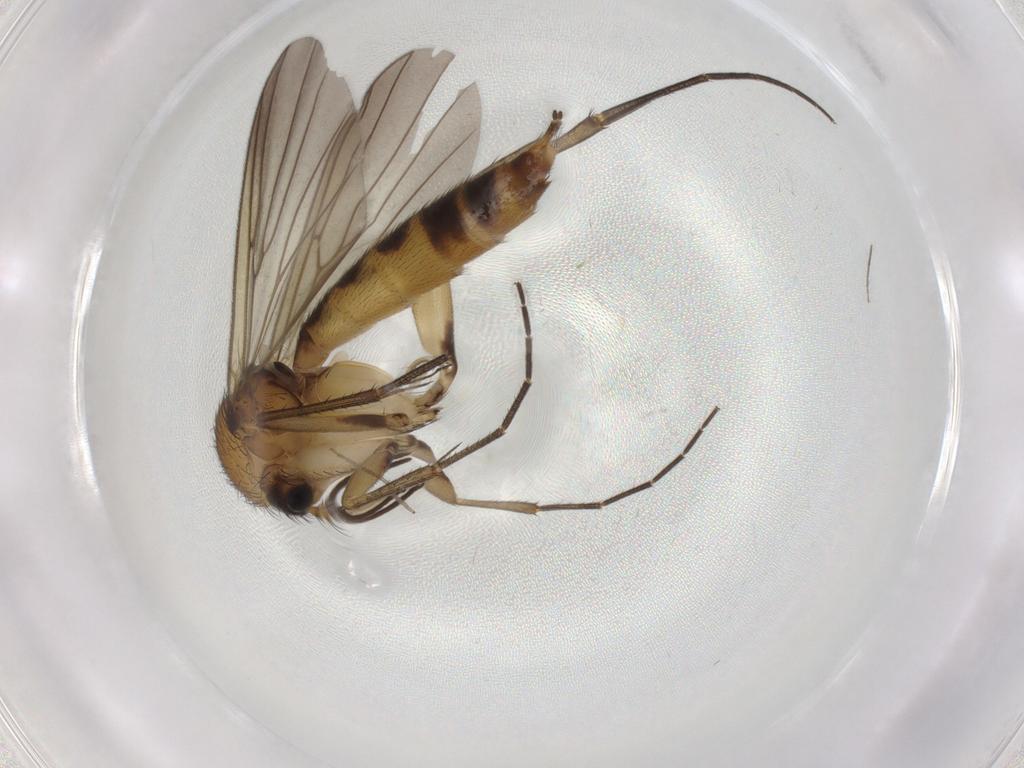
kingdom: Animalia
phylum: Arthropoda
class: Insecta
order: Diptera
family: Mycetophilidae
